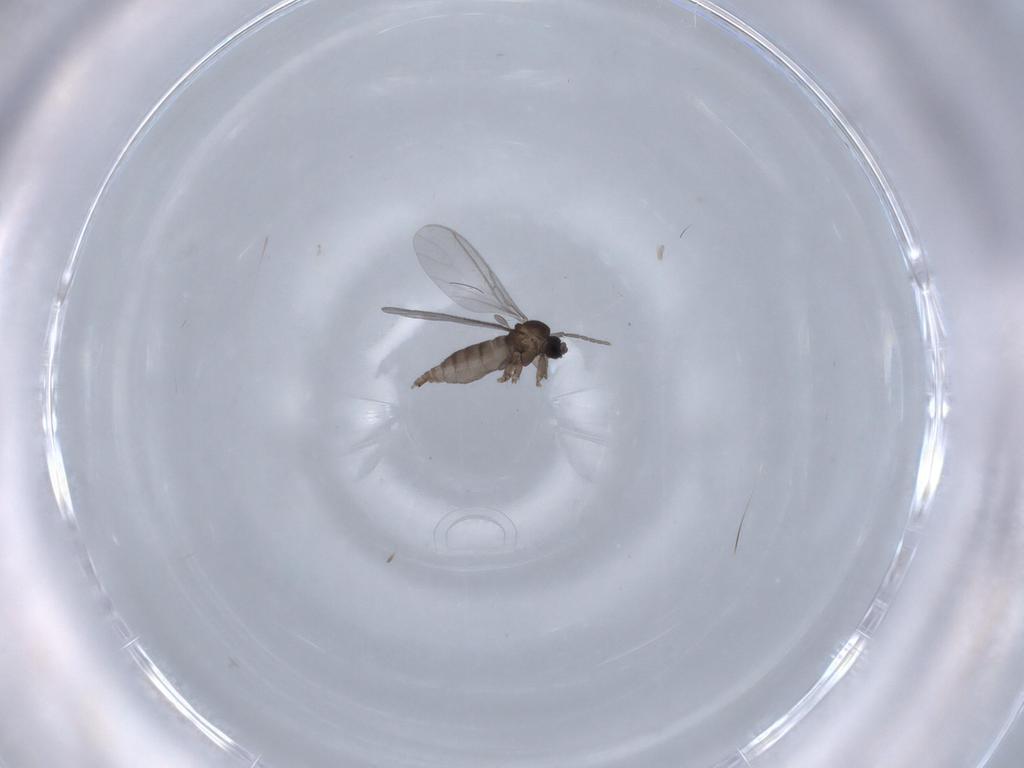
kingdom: Animalia
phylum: Arthropoda
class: Insecta
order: Diptera
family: Sciaridae
